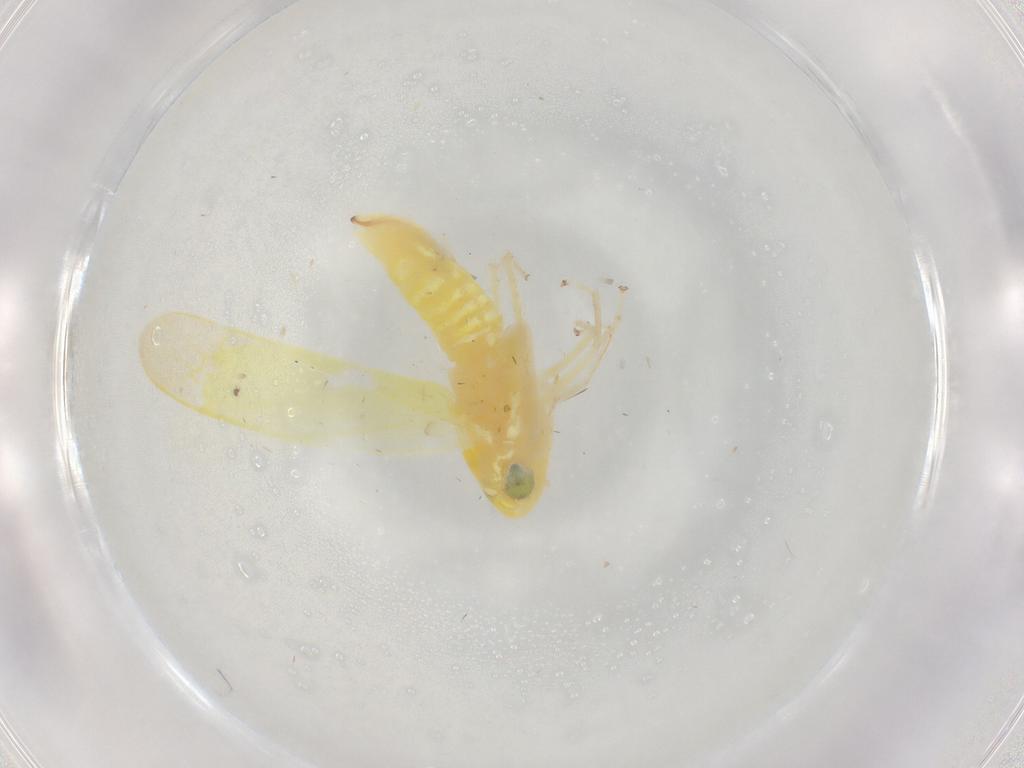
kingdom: Animalia
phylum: Arthropoda
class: Insecta
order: Hemiptera
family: Cicadellidae
